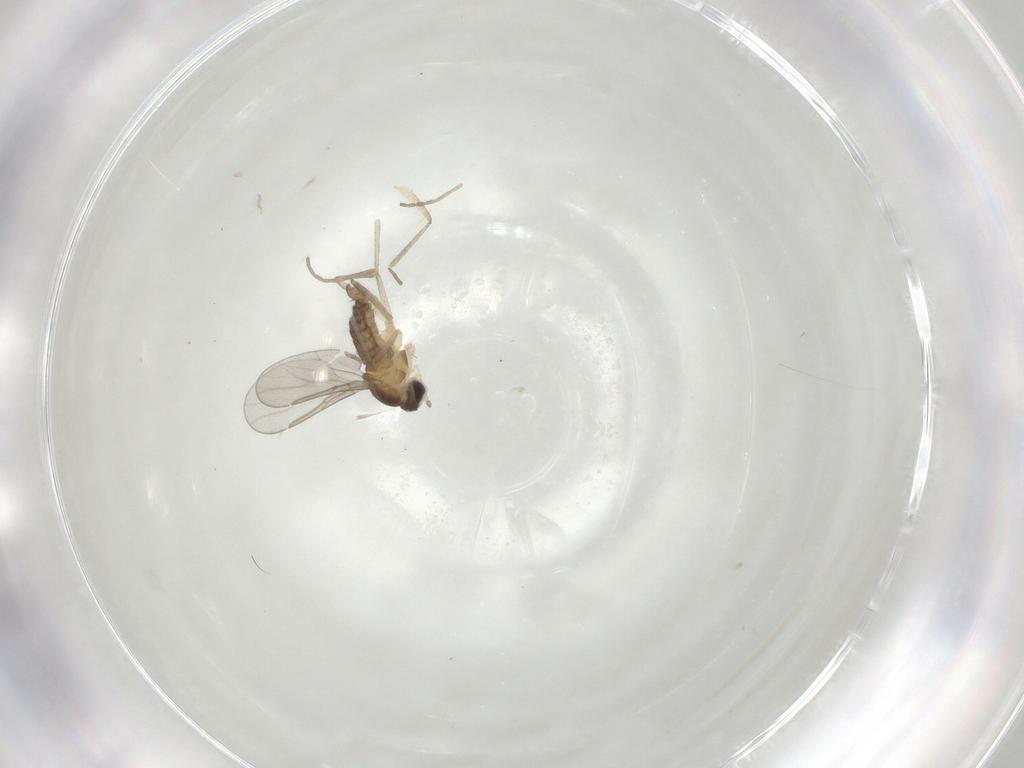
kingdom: Animalia
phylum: Arthropoda
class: Insecta
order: Diptera
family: Cecidomyiidae
